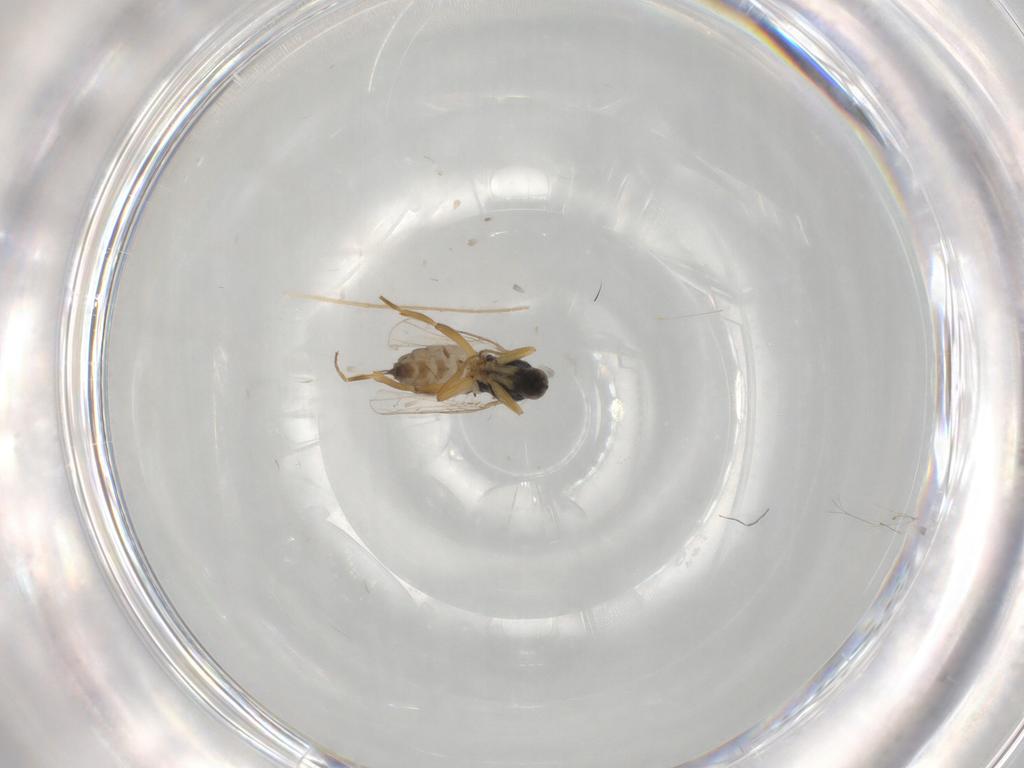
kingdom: Animalia
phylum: Arthropoda
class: Insecta
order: Diptera
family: Hybotidae
